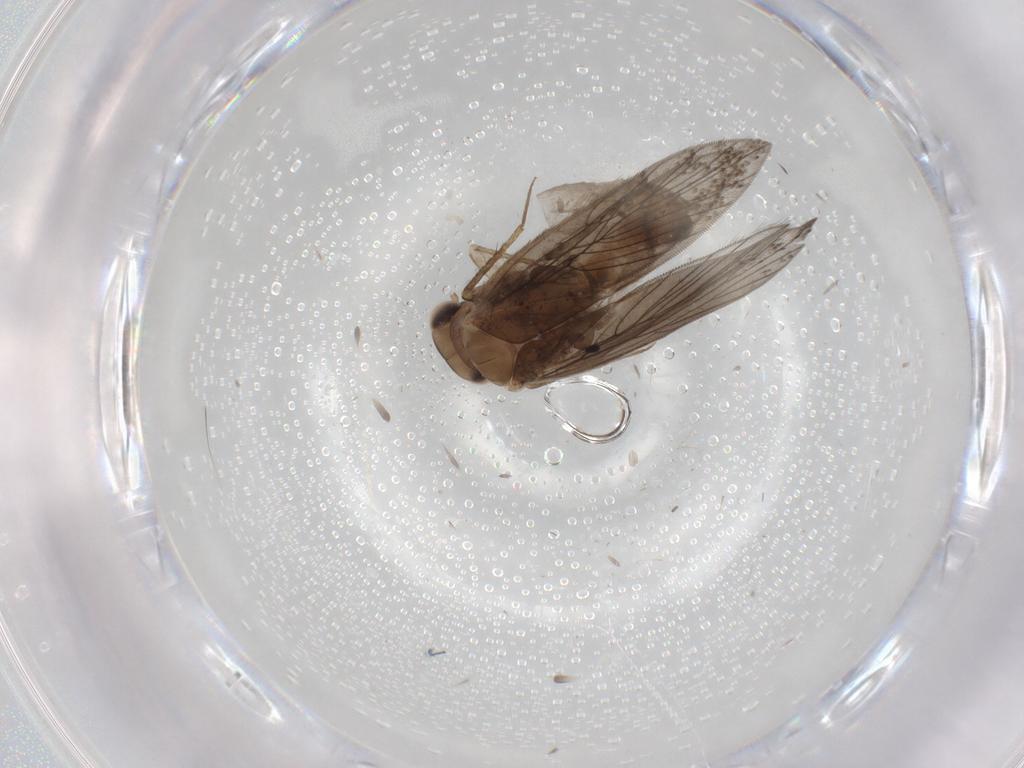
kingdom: Animalia
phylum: Arthropoda
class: Insecta
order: Psocodea
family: Lepidopsocidae
